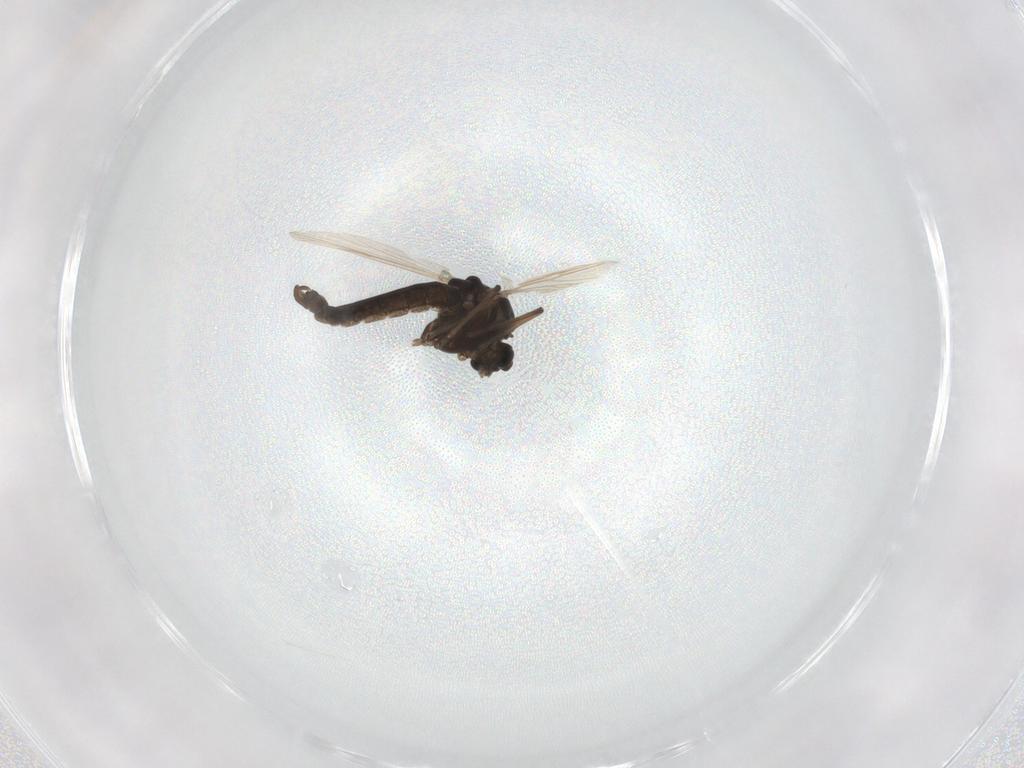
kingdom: Animalia
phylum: Arthropoda
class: Insecta
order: Diptera
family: Chironomidae
